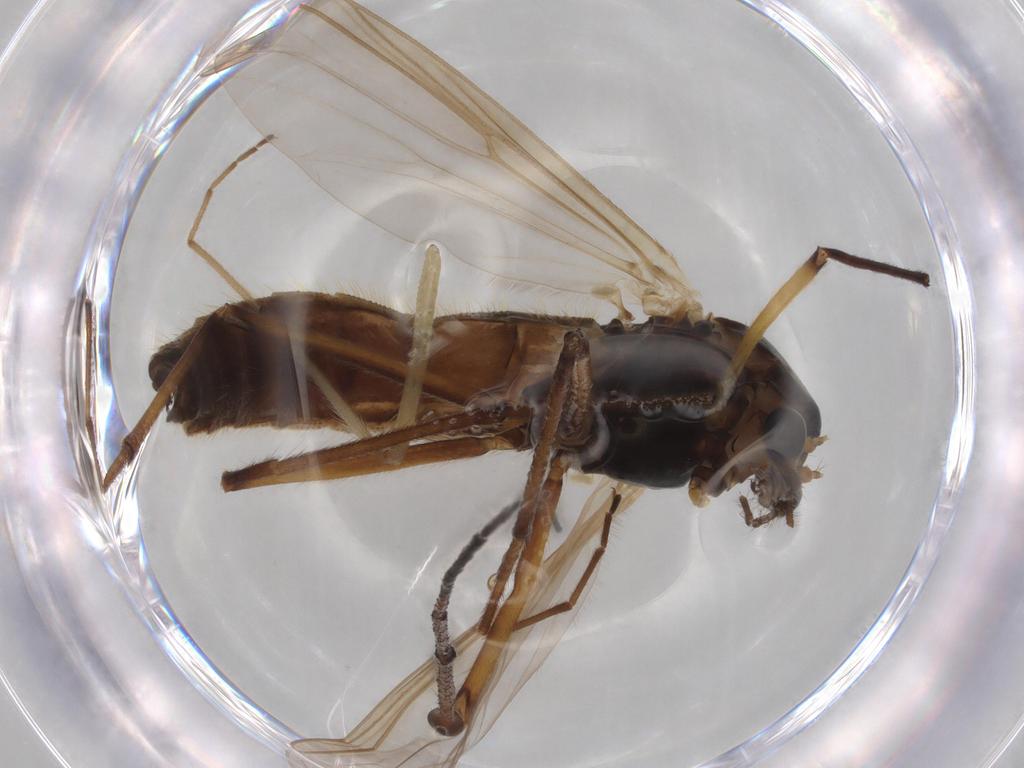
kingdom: Animalia
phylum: Arthropoda
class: Insecta
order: Diptera
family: Chironomidae
